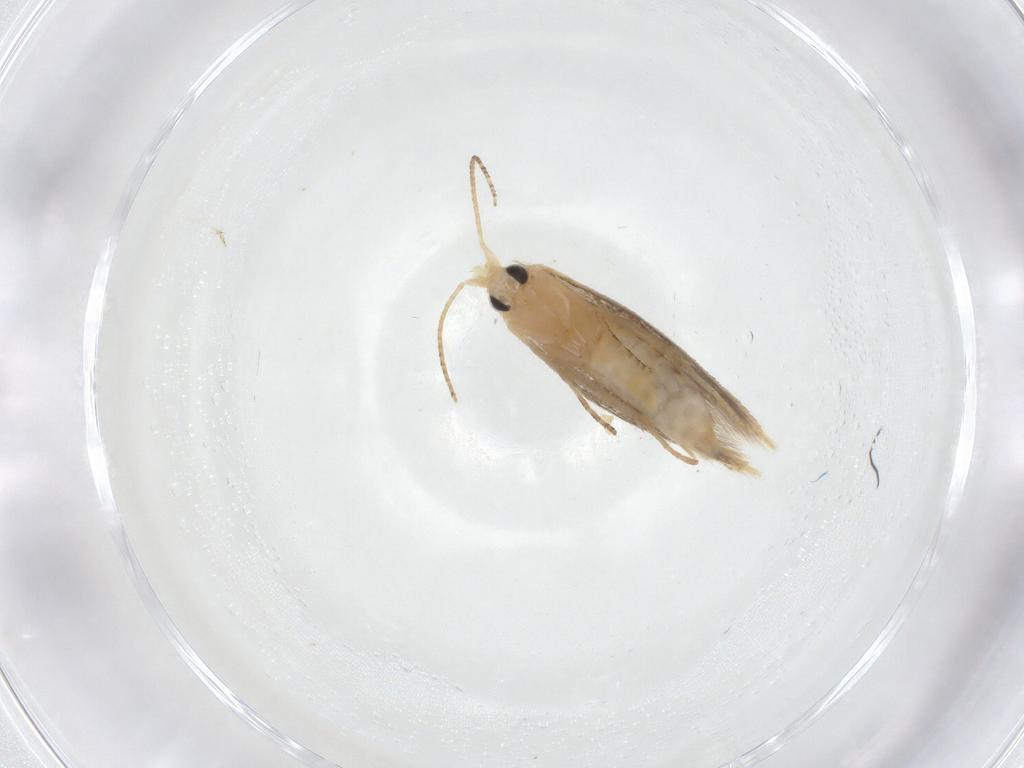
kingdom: Animalia
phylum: Arthropoda
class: Insecta
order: Lepidoptera
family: Bucculatricidae
